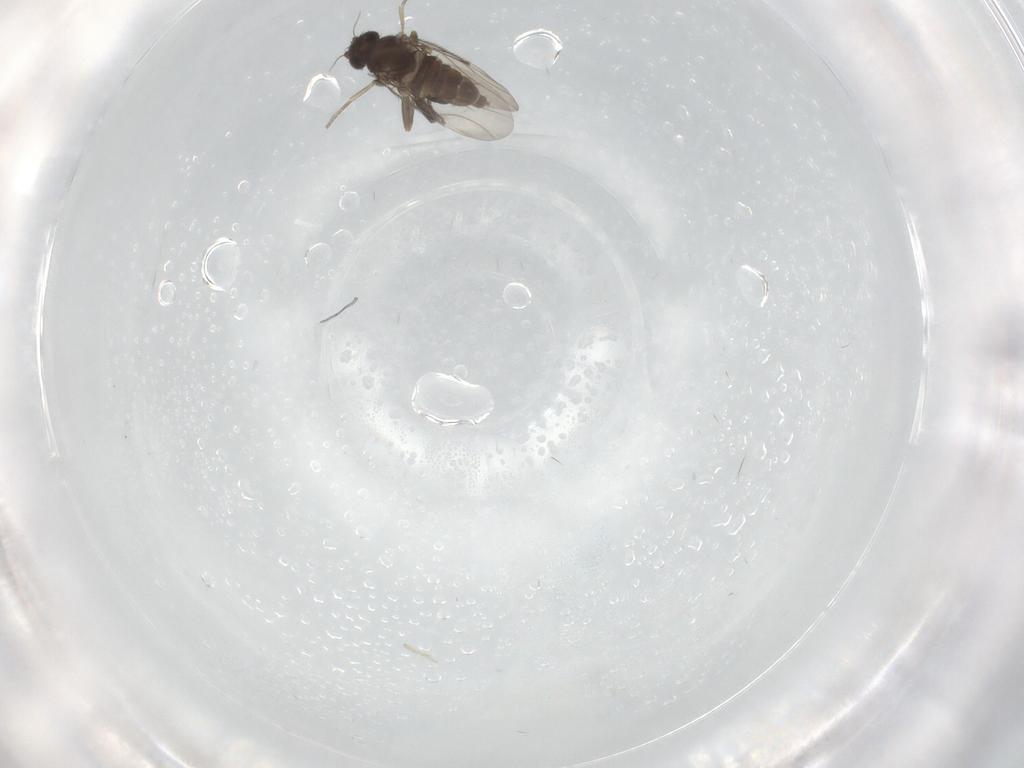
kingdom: Animalia
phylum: Arthropoda
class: Insecta
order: Diptera
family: Phoridae
